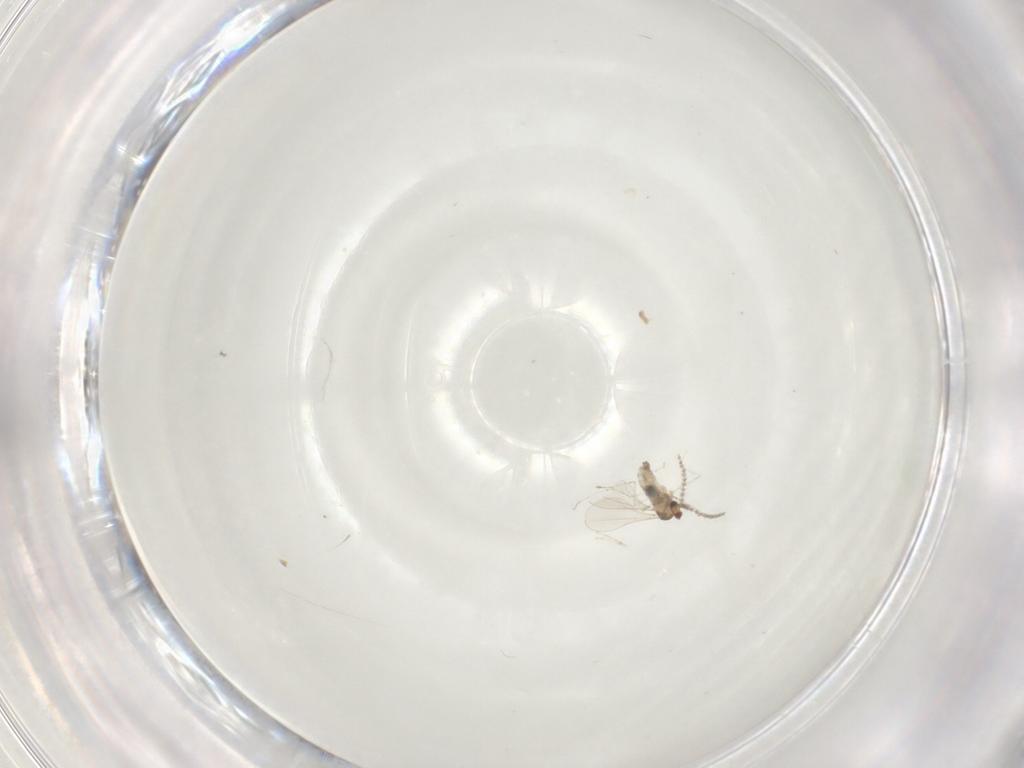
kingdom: Animalia
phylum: Arthropoda
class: Insecta
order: Diptera
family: Cecidomyiidae
